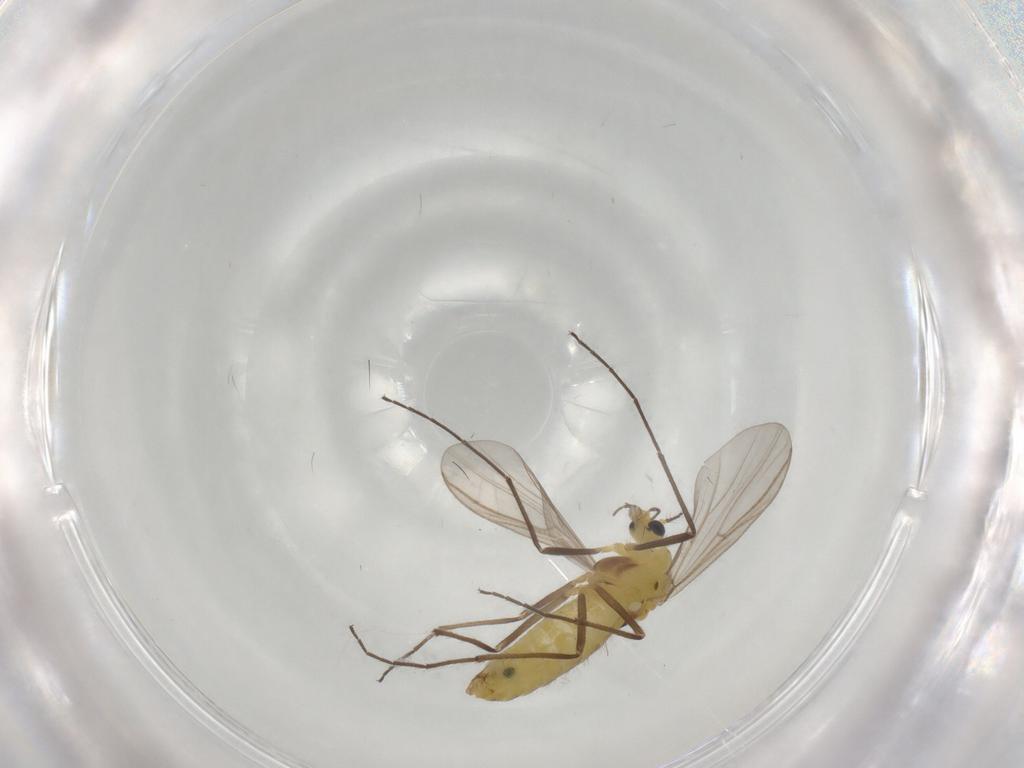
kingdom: Animalia
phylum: Arthropoda
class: Insecta
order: Diptera
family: Chironomidae
